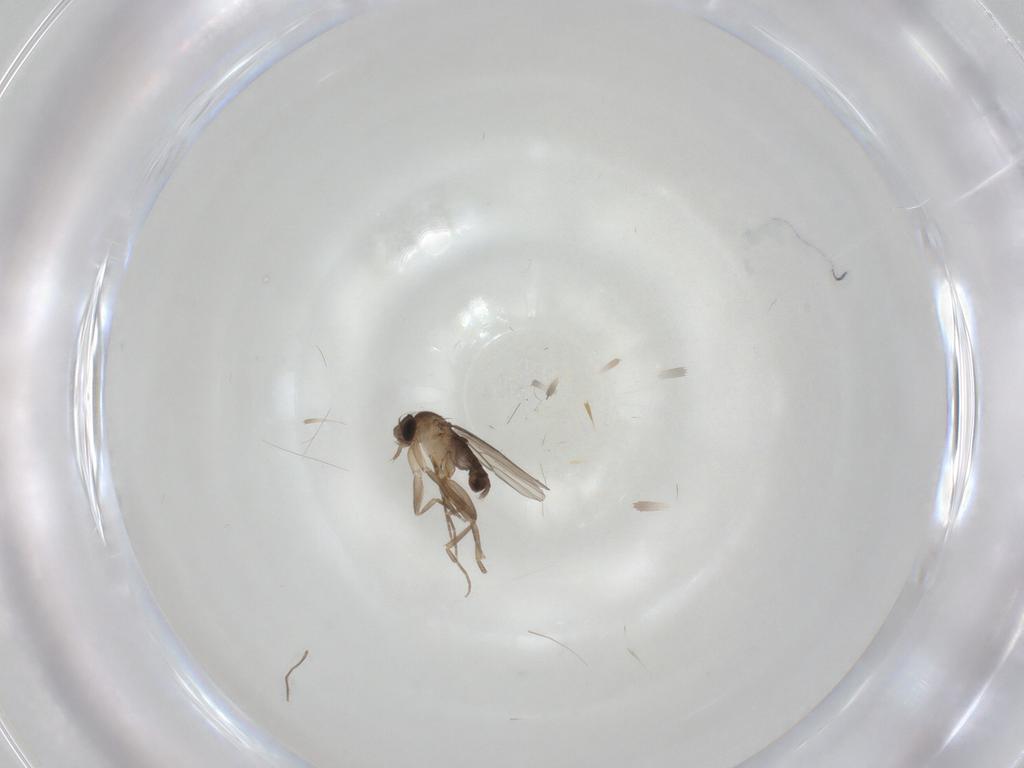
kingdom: Animalia
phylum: Arthropoda
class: Insecta
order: Diptera
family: Phoridae
